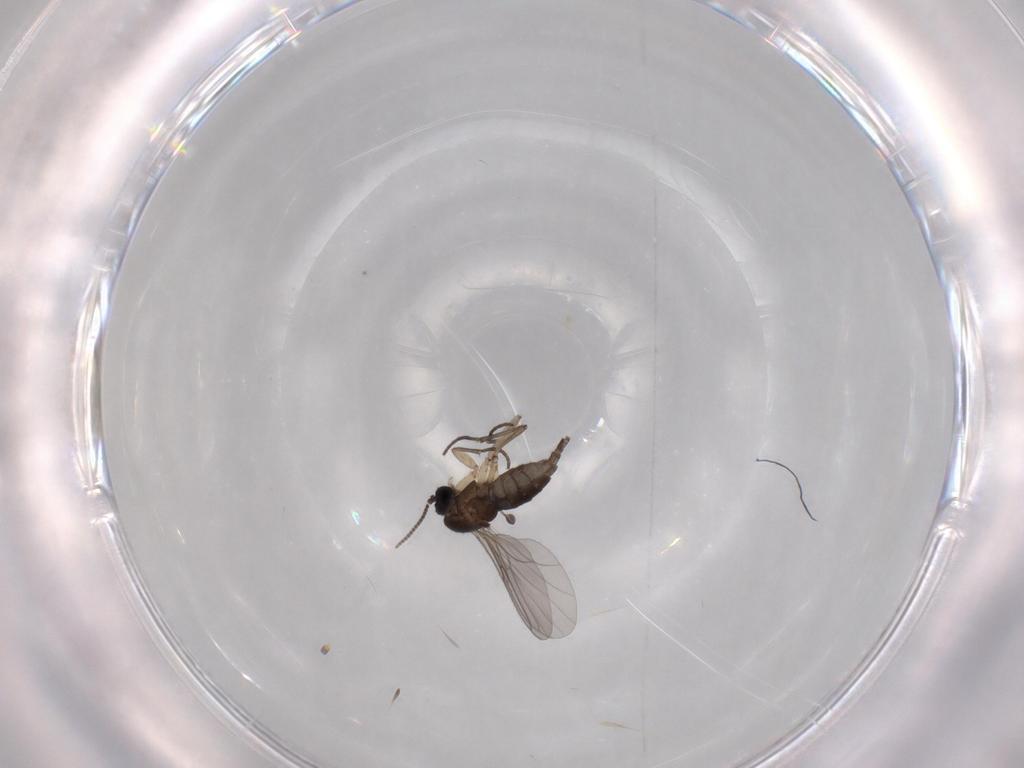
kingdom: Animalia
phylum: Arthropoda
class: Insecta
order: Diptera
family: Sciaridae
